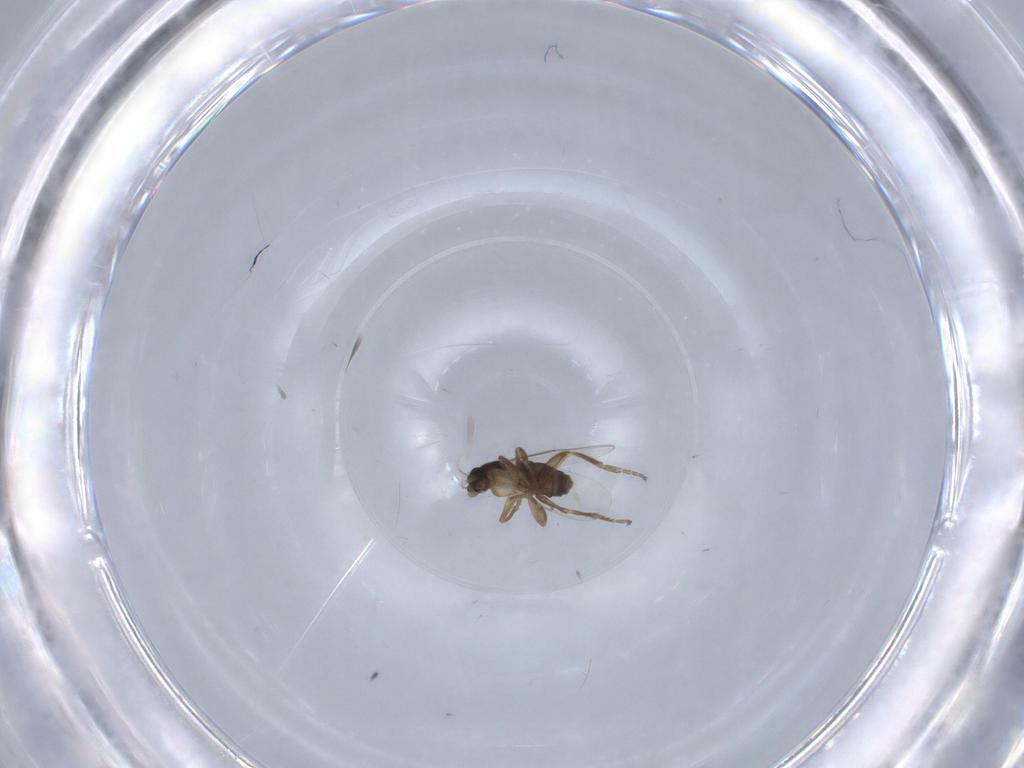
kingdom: Animalia
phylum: Arthropoda
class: Insecta
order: Diptera
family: Phoridae
